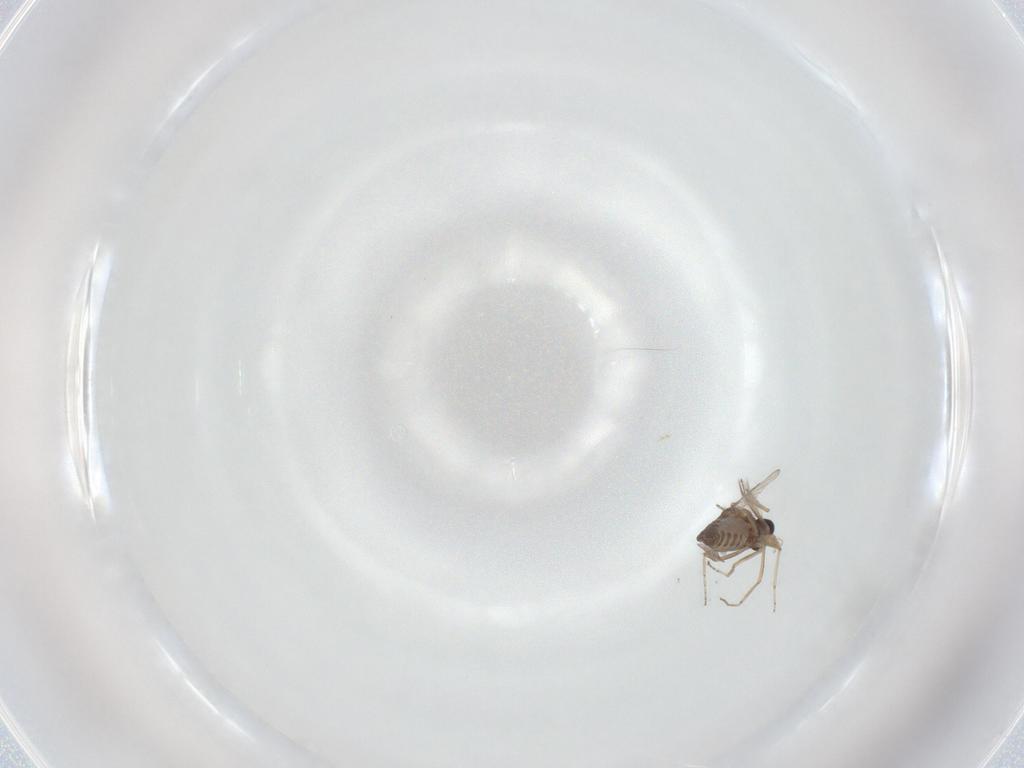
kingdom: Animalia
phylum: Arthropoda
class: Insecta
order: Diptera
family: Ceratopogonidae
